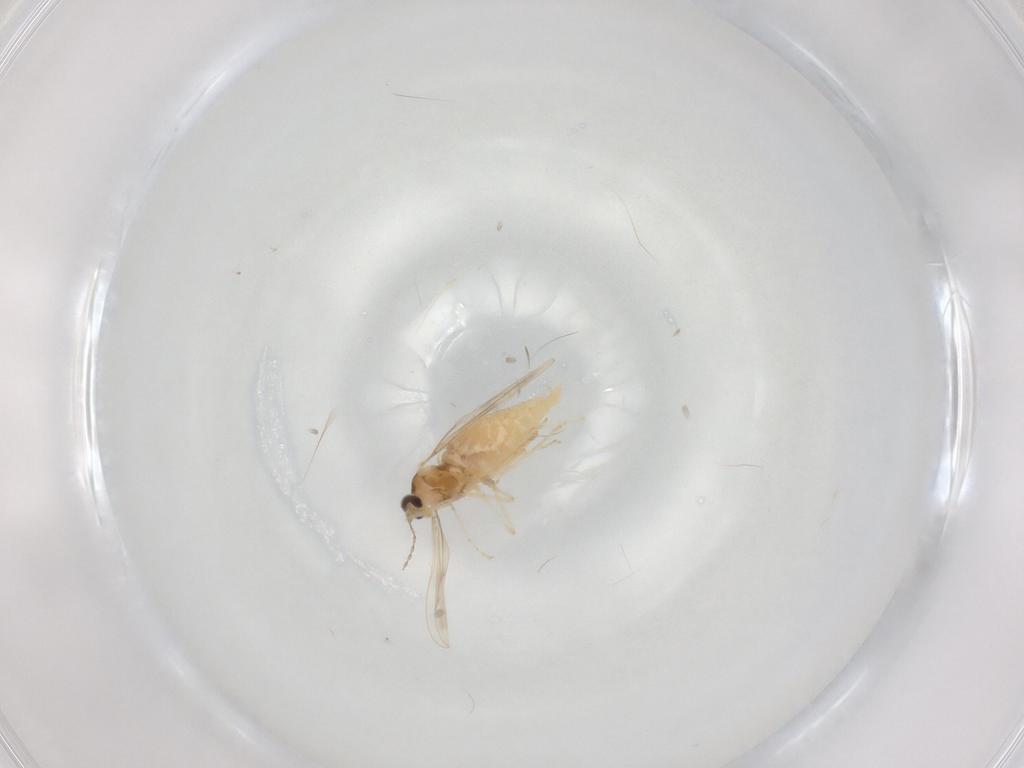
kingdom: Animalia
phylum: Arthropoda
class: Insecta
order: Diptera
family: Cecidomyiidae
